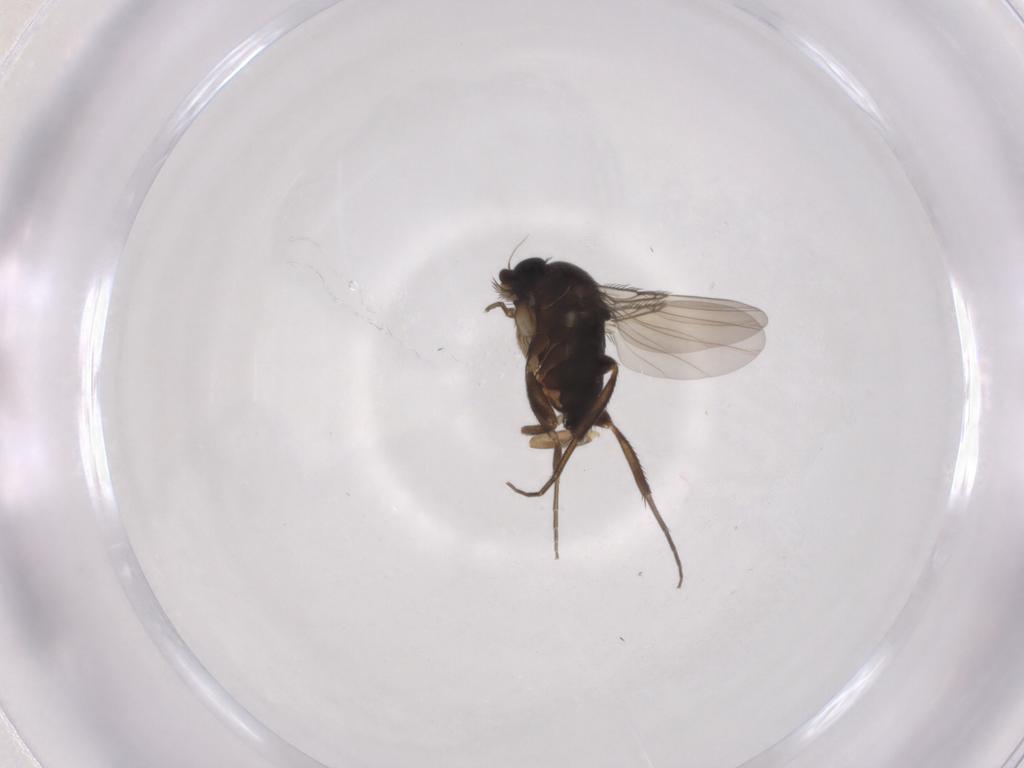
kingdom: Animalia
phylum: Arthropoda
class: Insecta
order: Diptera
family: Phoridae
